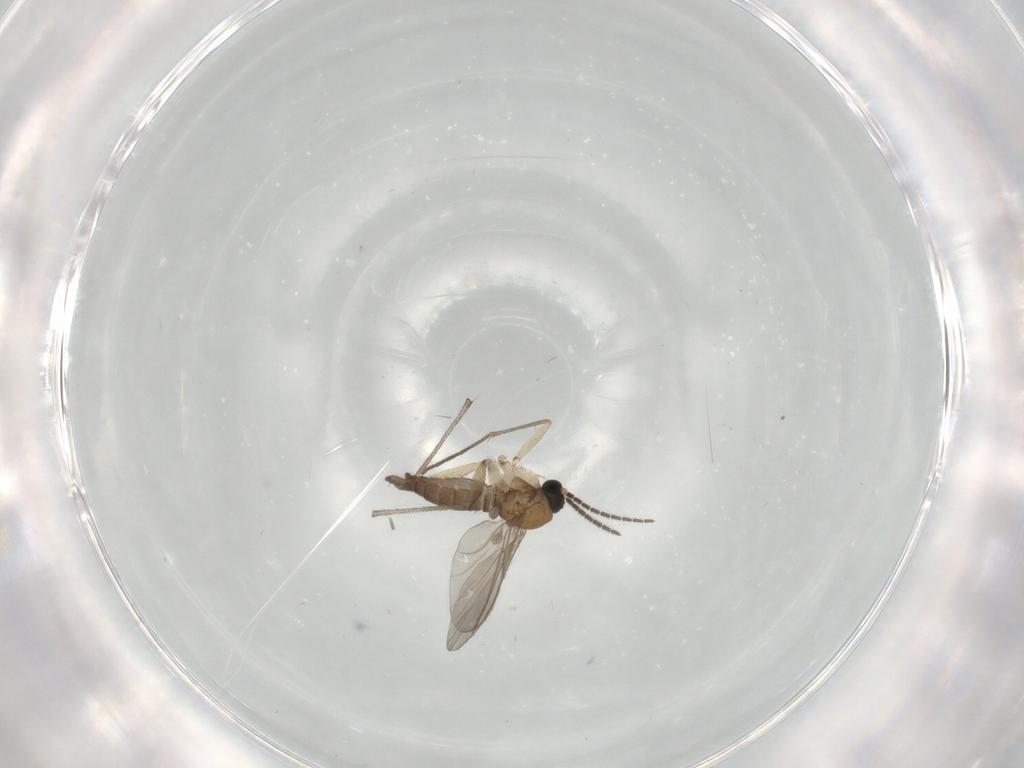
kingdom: Animalia
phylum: Arthropoda
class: Insecta
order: Diptera
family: Sciaridae
